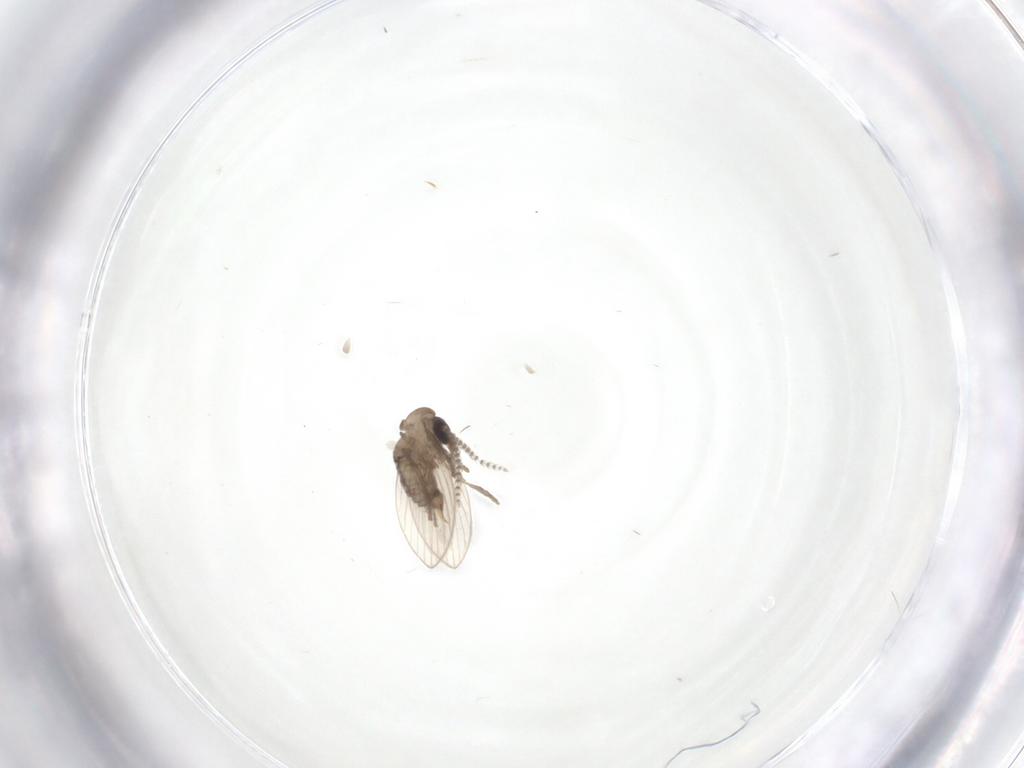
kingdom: Animalia
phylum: Arthropoda
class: Insecta
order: Diptera
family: Psychodidae
